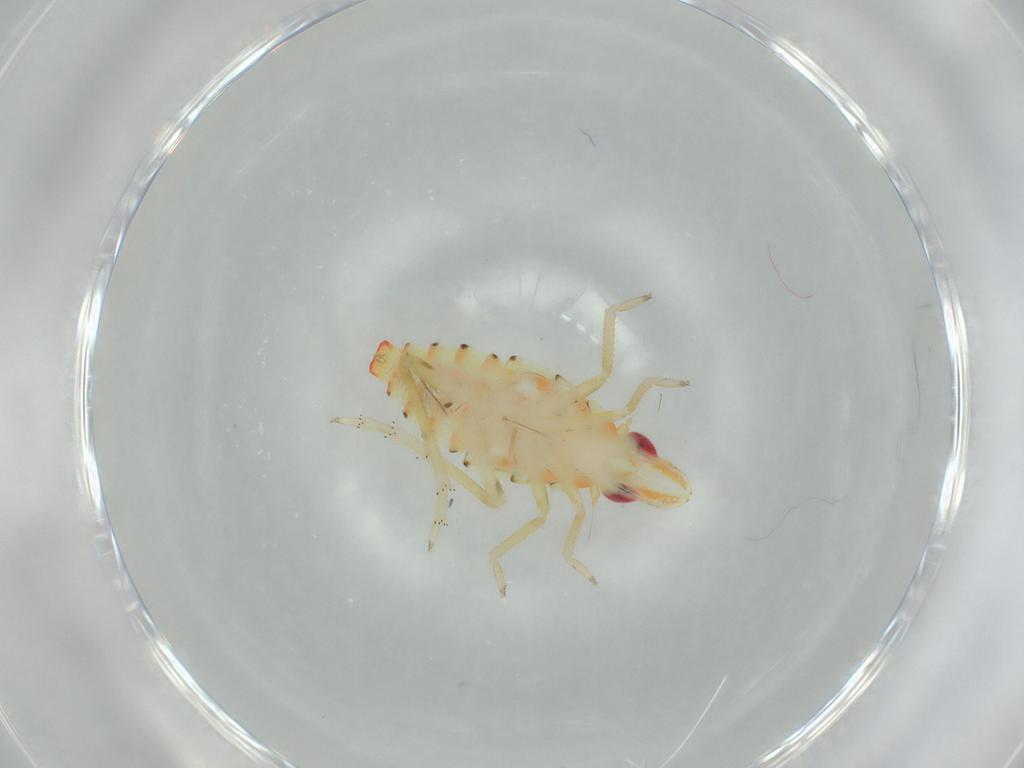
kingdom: Animalia
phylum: Arthropoda
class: Insecta
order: Hemiptera
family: Tropiduchidae
